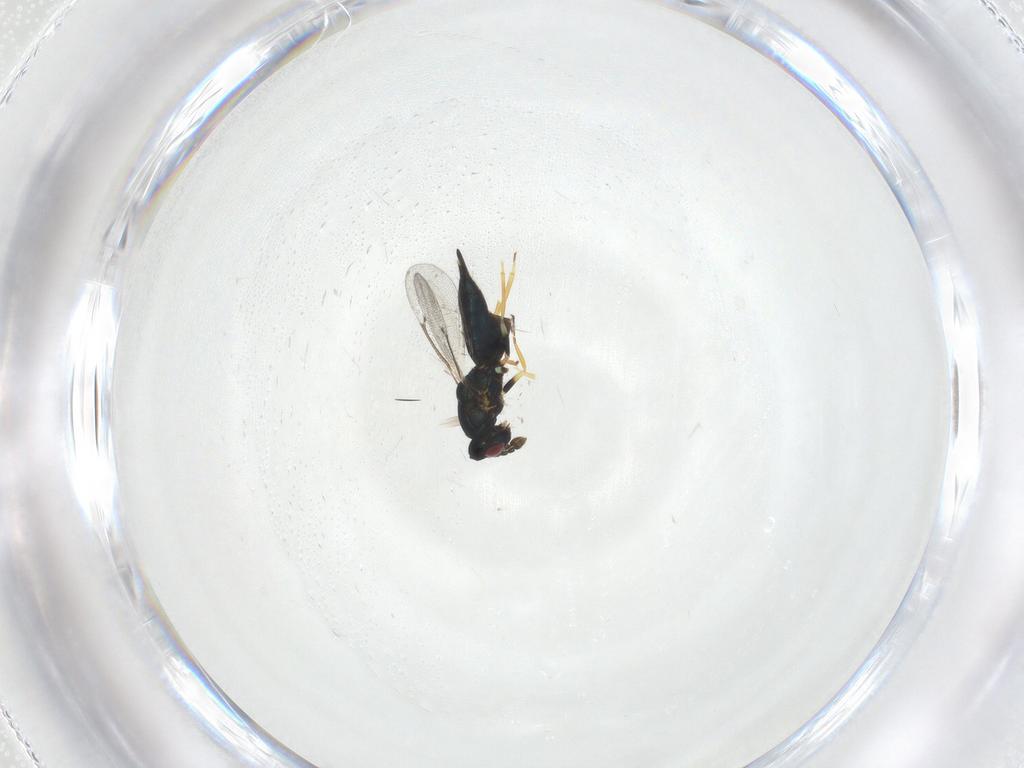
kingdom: Animalia
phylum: Arthropoda
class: Insecta
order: Hymenoptera
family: Eulophidae
